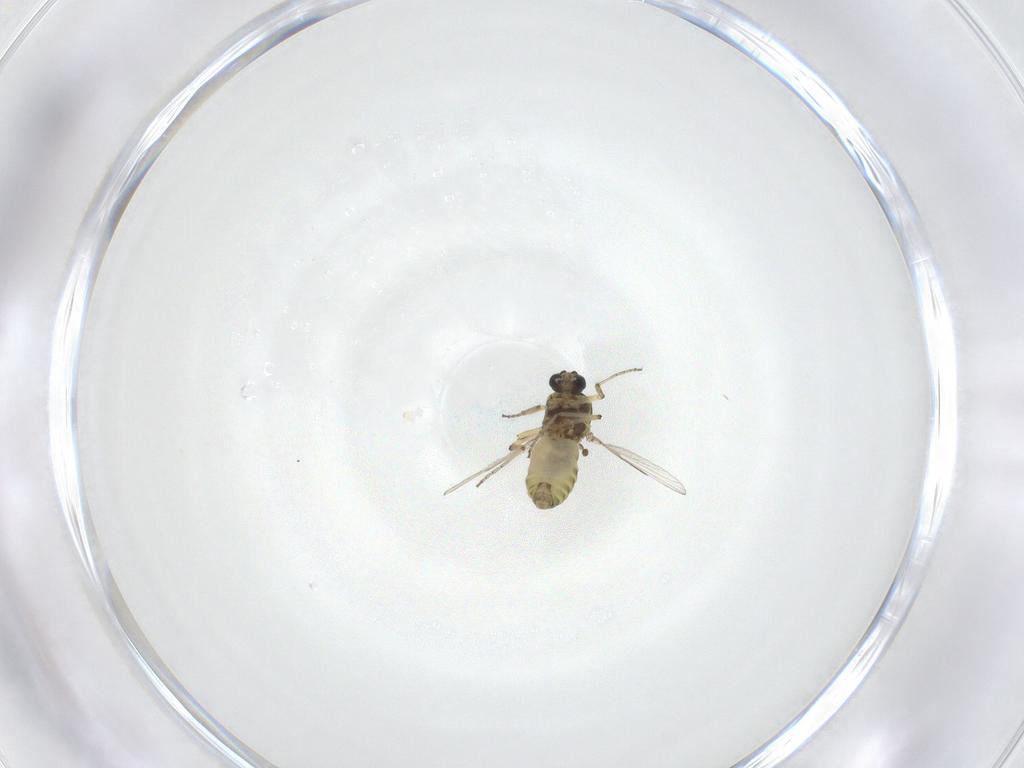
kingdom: Animalia
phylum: Arthropoda
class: Insecta
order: Diptera
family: Ceratopogonidae
